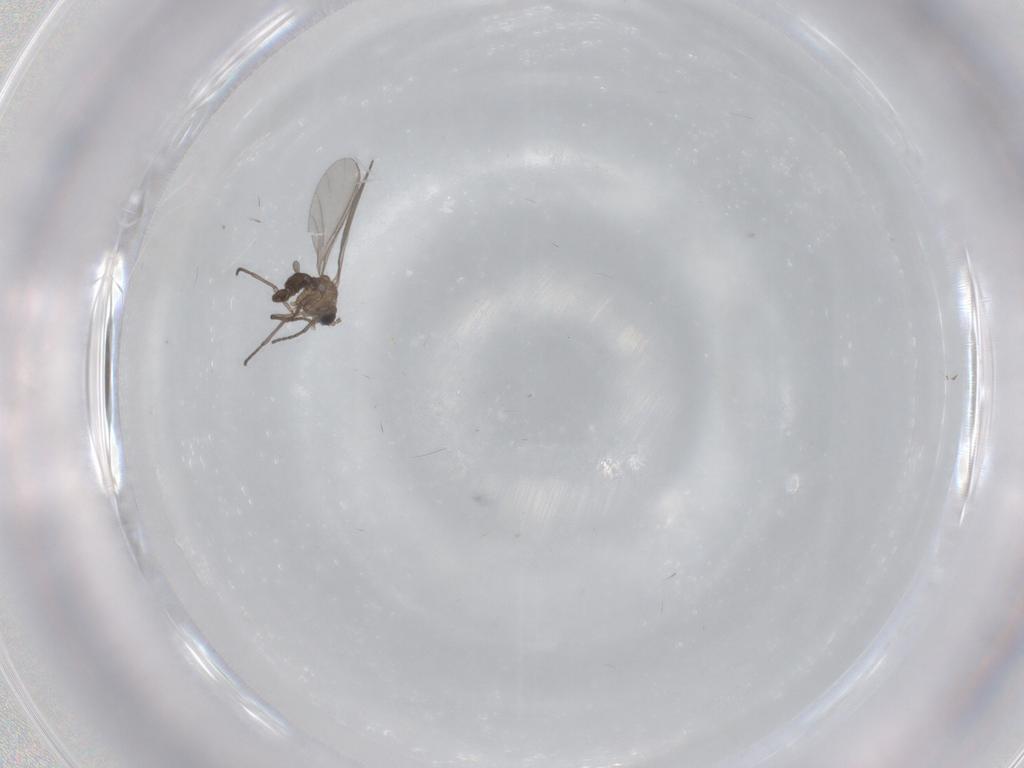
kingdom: Animalia
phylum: Arthropoda
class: Insecta
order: Diptera
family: Sciaridae
